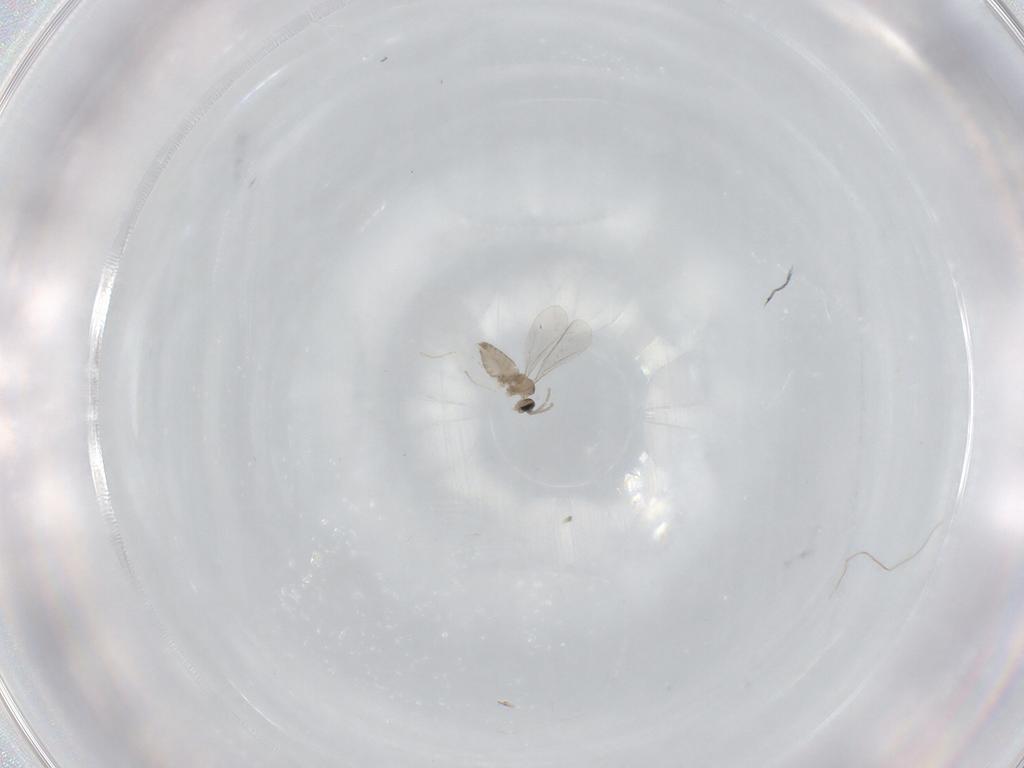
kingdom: Animalia
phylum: Arthropoda
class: Insecta
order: Diptera
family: Cecidomyiidae
